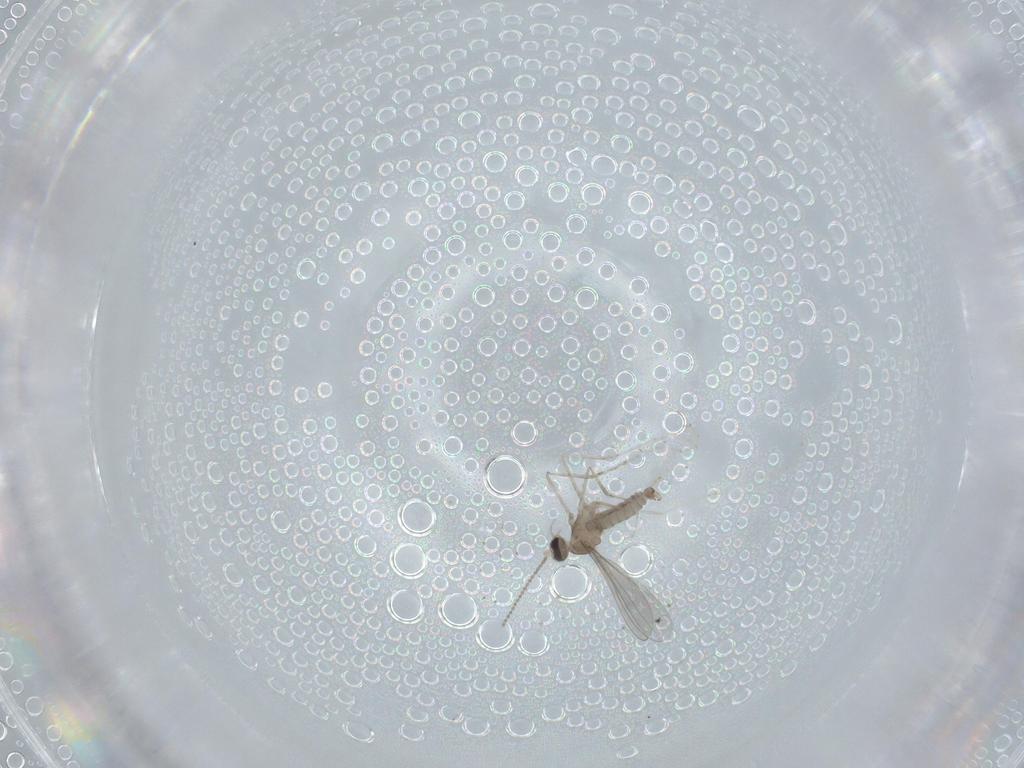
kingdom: Animalia
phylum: Arthropoda
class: Insecta
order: Diptera
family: Cecidomyiidae
